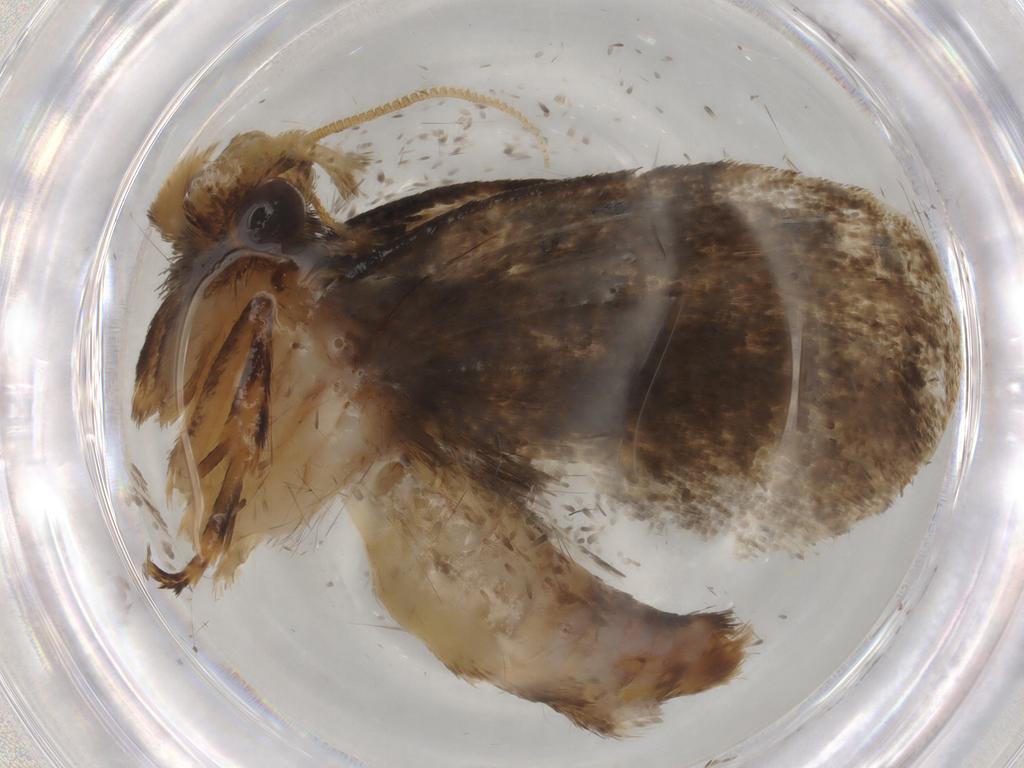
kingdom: Animalia
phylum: Arthropoda
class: Insecta
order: Lepidoptera
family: Tineidae
